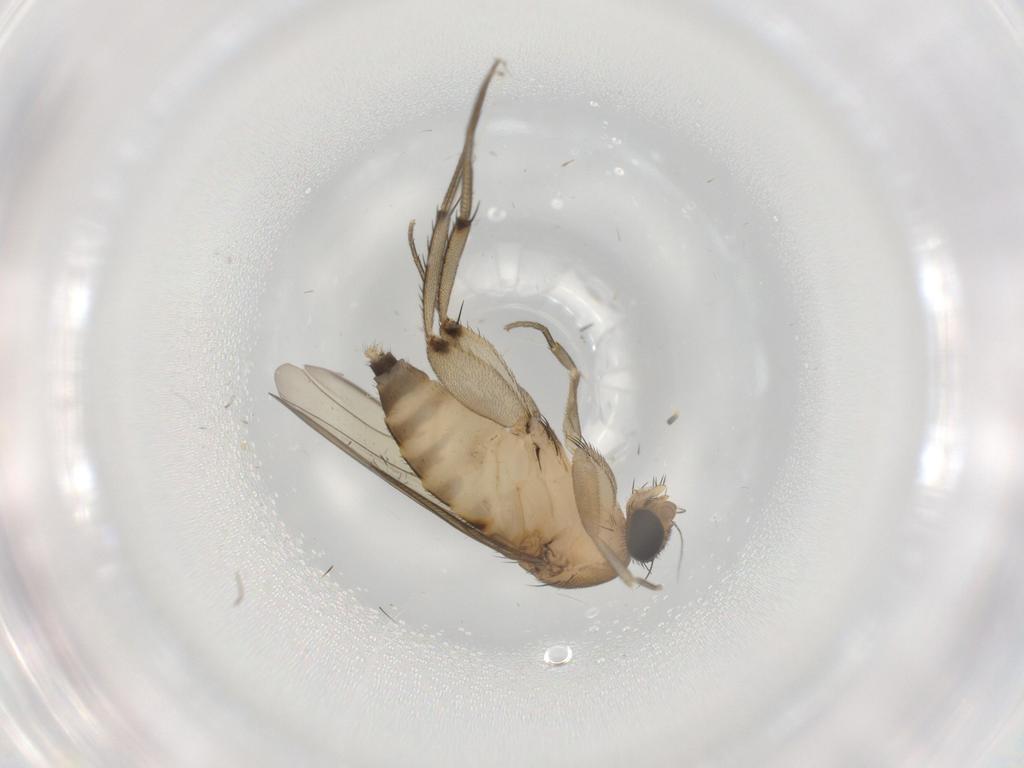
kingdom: Animalia
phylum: Arthropoda
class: Insecta
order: Diptera
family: Phoridae
